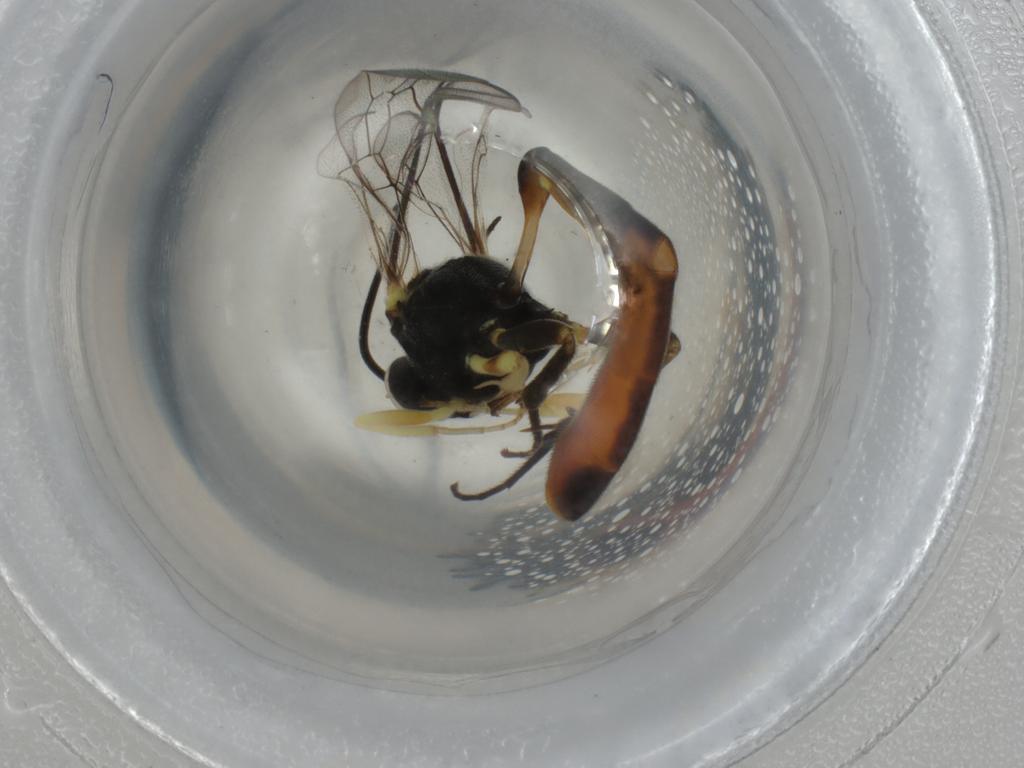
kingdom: Animalia
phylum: Arthropoda
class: Insecta
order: Hymenoptera
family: Ichneumonidae
